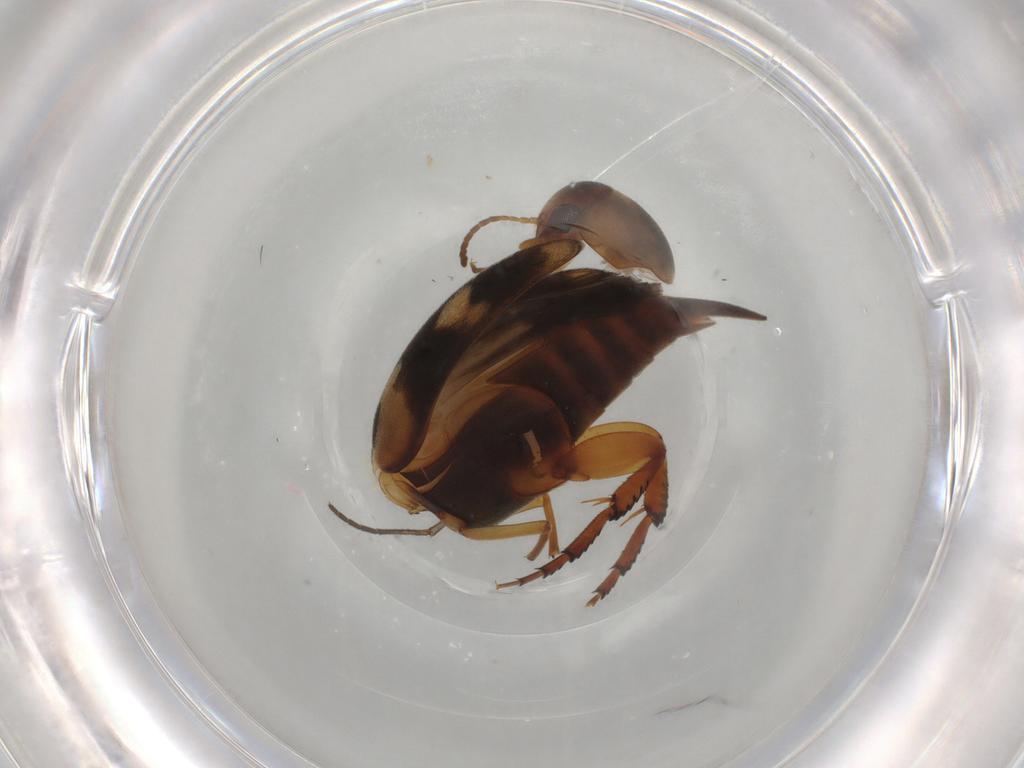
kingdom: Animalia
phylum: Arthropoda
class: Insecta
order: Coleoptera
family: Mordellidae
